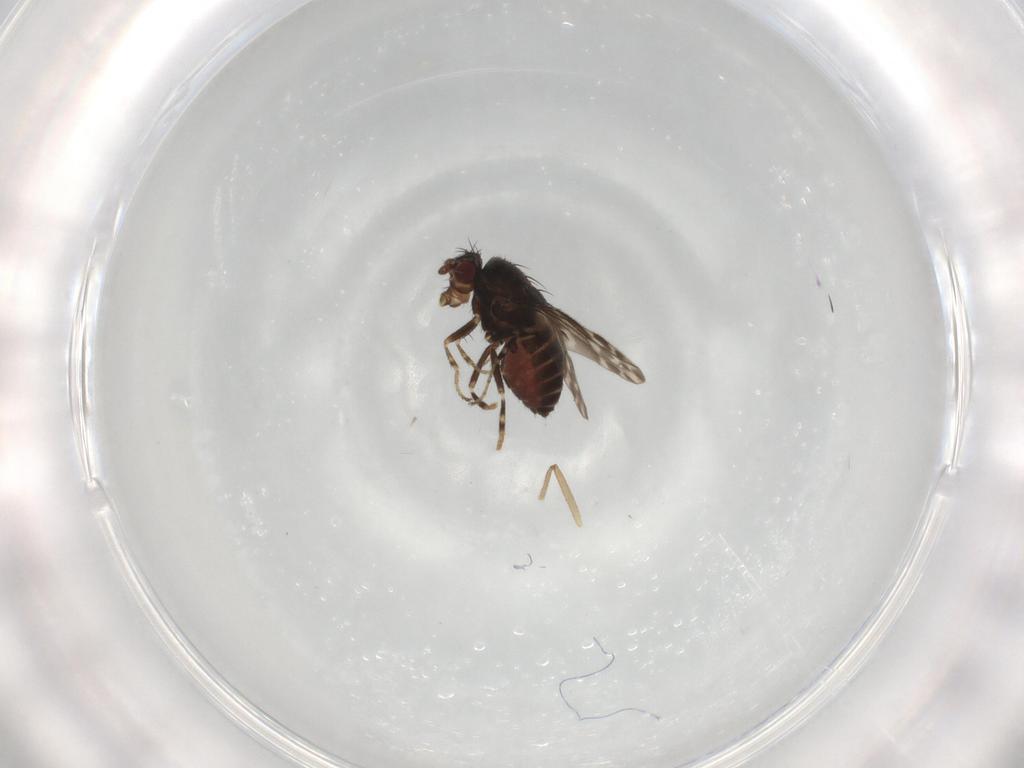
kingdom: Animalia
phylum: Arthropoda
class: Insecta
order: Diptera
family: Sphaeroceridae
